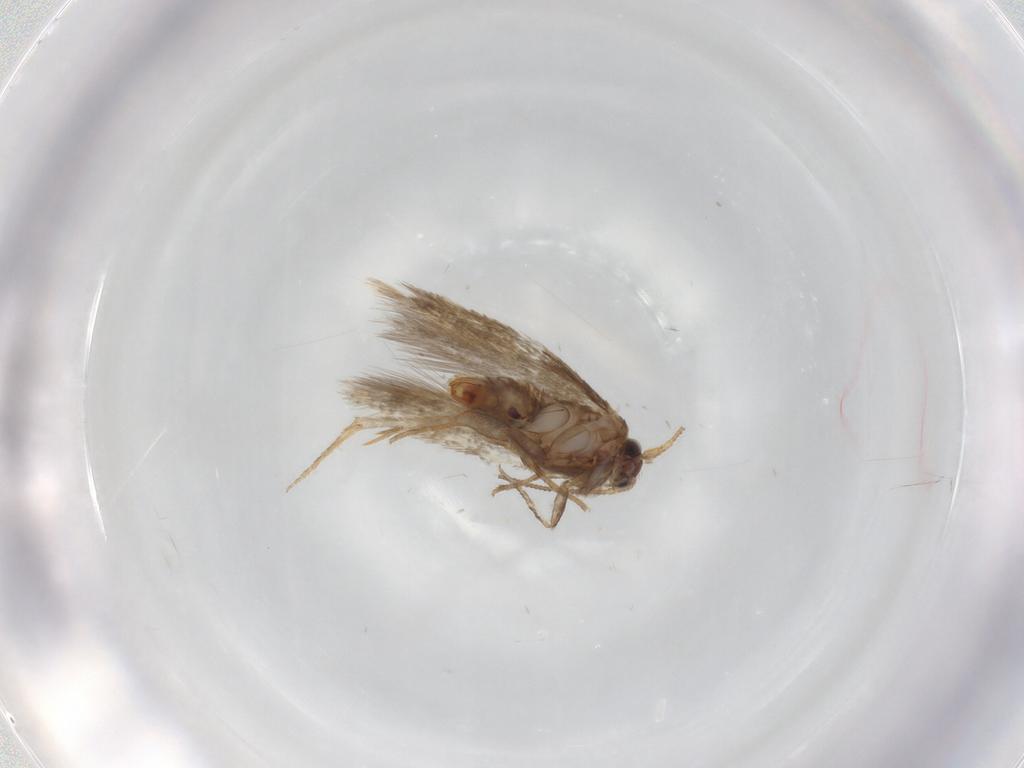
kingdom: Animalia
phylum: Arthropoda
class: Insecta
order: Lepidoptera
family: Nepticulidae
